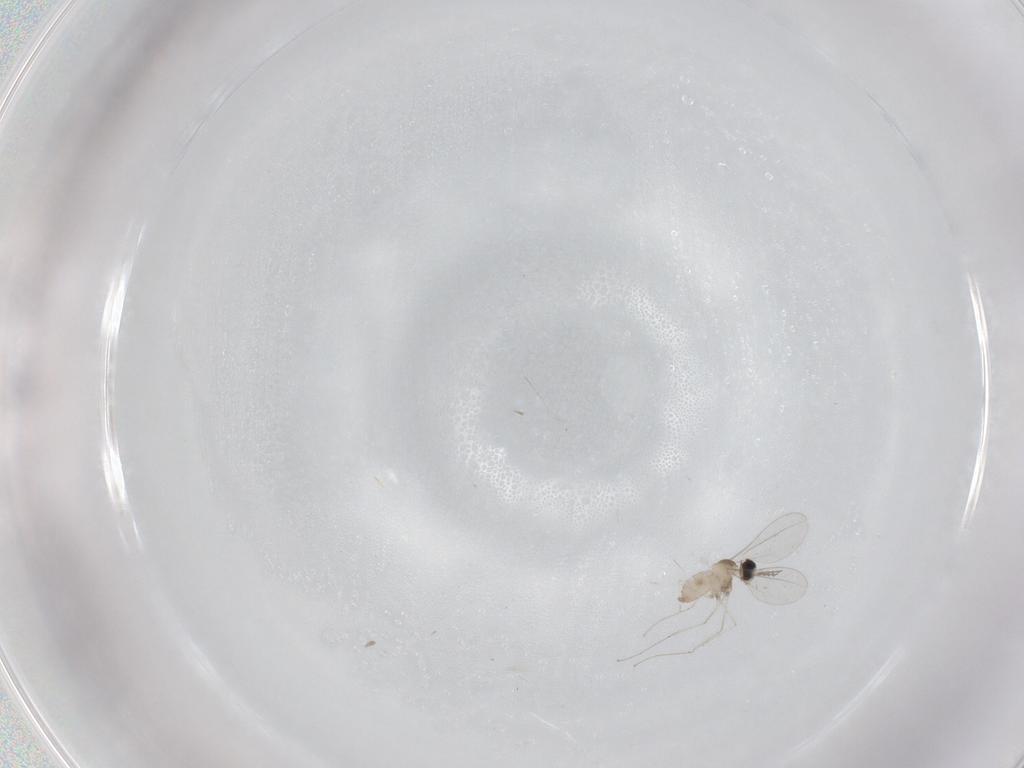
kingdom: Animalia
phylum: Arthropoda
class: Insecta
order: Diptera
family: Psychodidae
